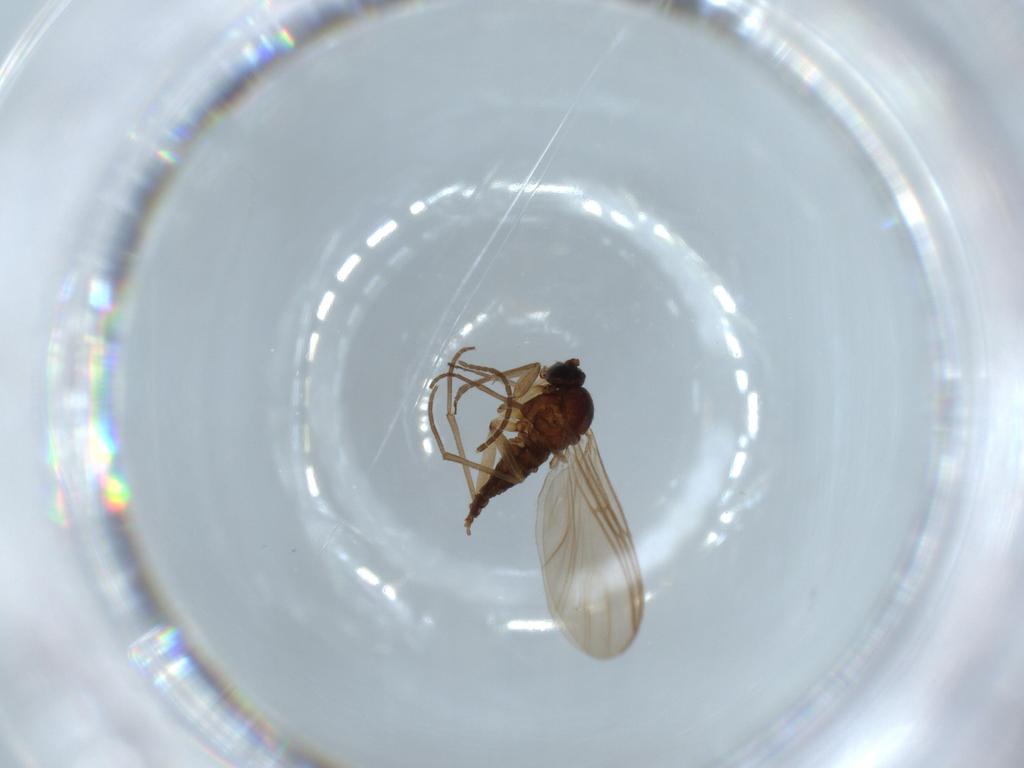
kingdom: Animalia
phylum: Arthropoda
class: Insecta
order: Diptera
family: Sciaridae
